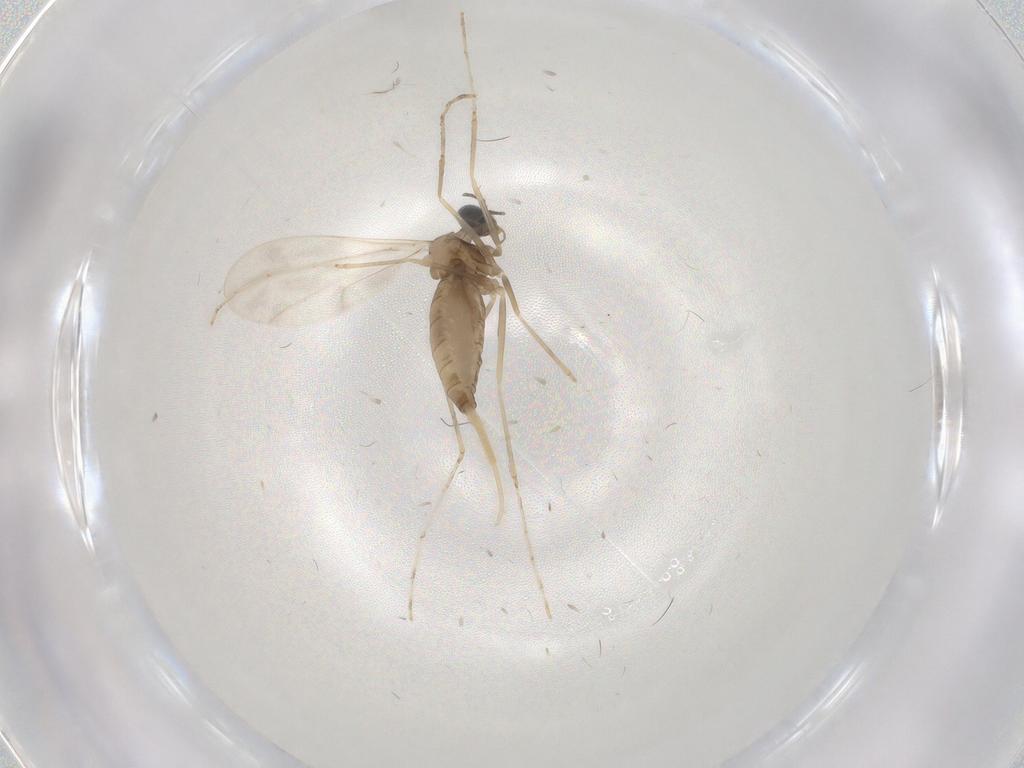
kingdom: Animalia
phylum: Arthropoda
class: Insecta
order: Diptera
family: Cecidomyiidae
